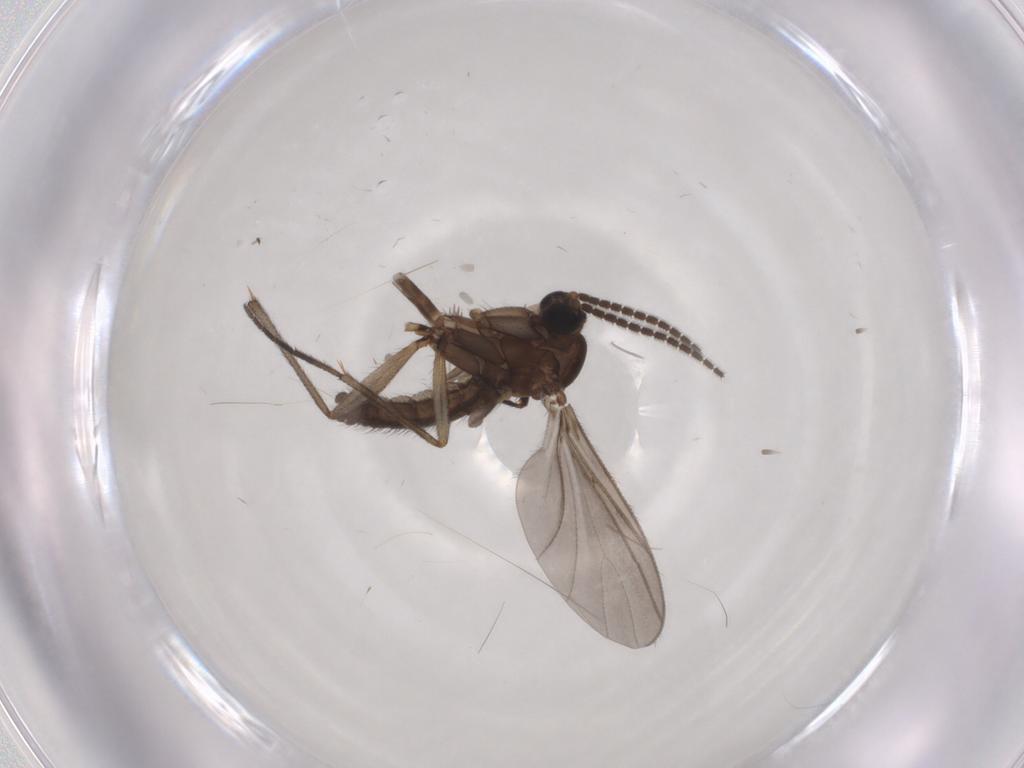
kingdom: Animalia
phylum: Arthropoda
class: Insecta
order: Diptera
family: Sciaridae
